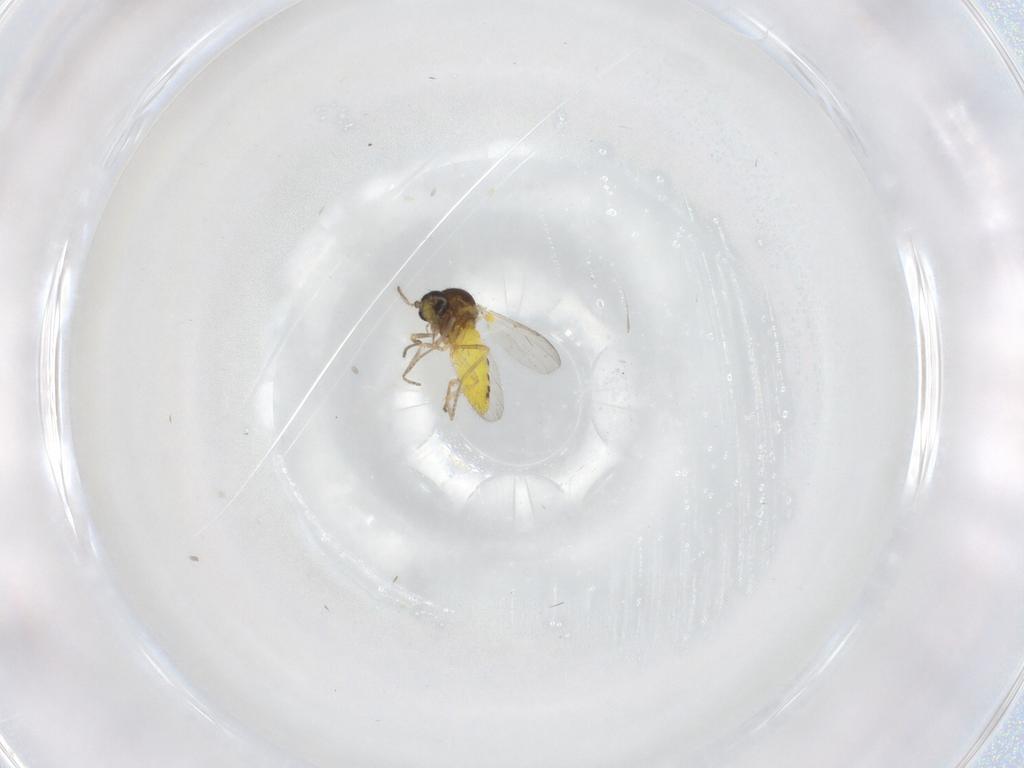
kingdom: Animalia
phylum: Arthropoda
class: Insecta
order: Diptera
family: Ceratopogonidae
